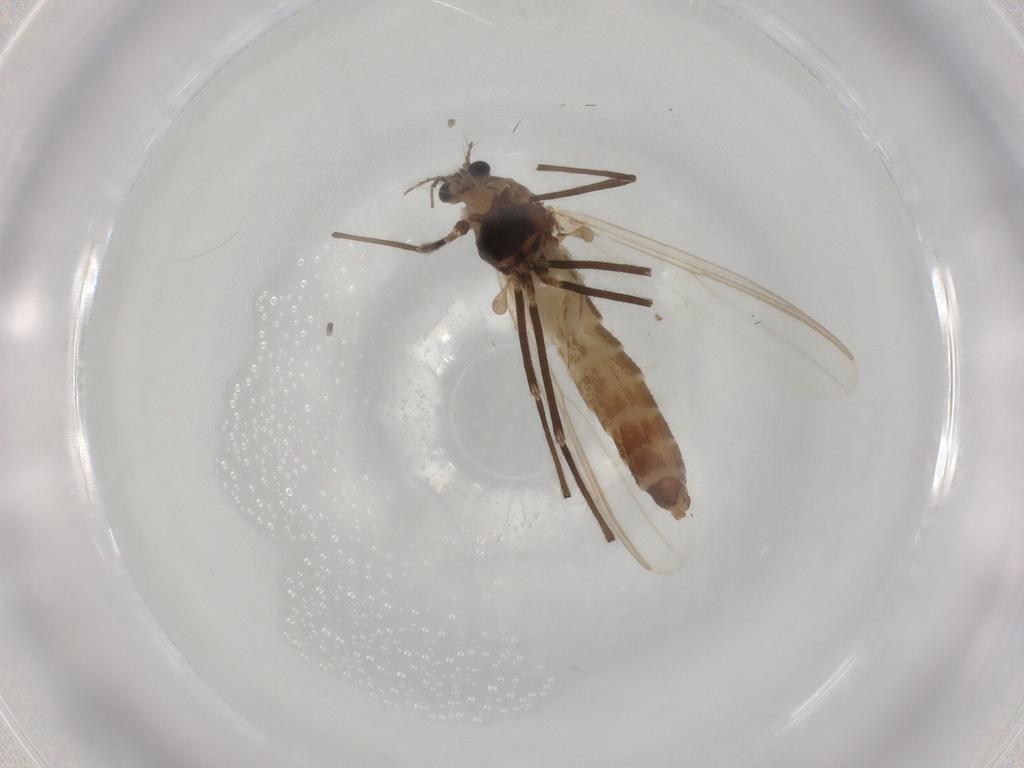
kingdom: Animalia
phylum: Arthropoda
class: Insecta
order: Diptera
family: Chironomidae
